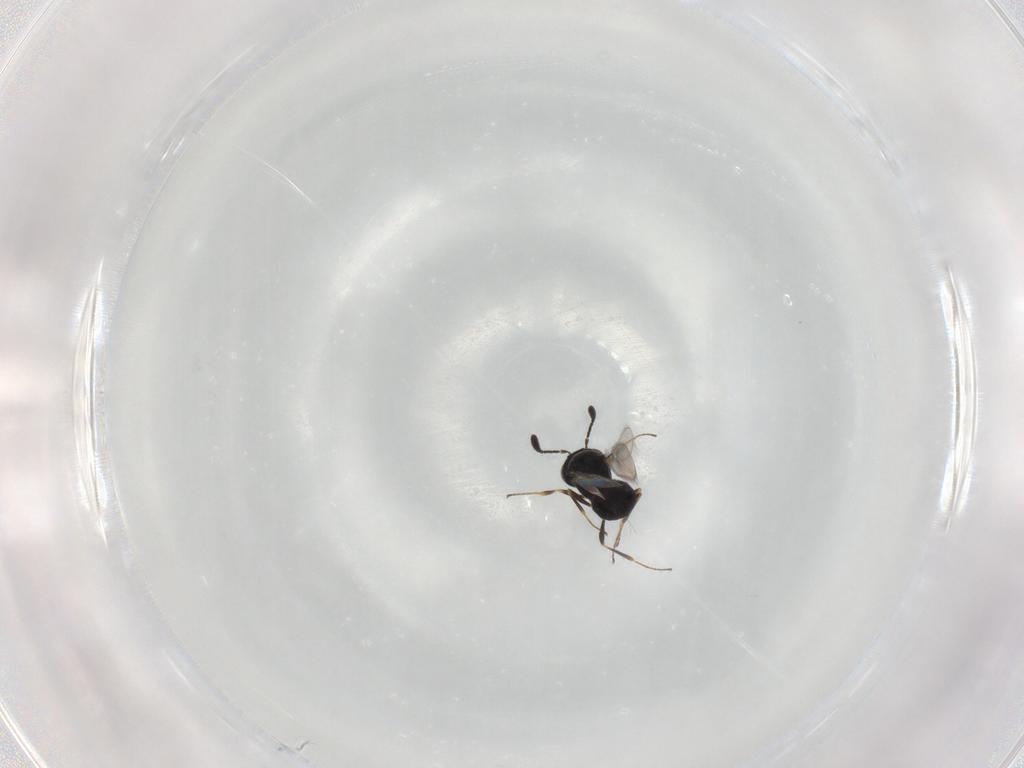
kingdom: Animalia
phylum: Arthropoda
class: Insecta
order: Hymenoptera
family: Scelionidae
